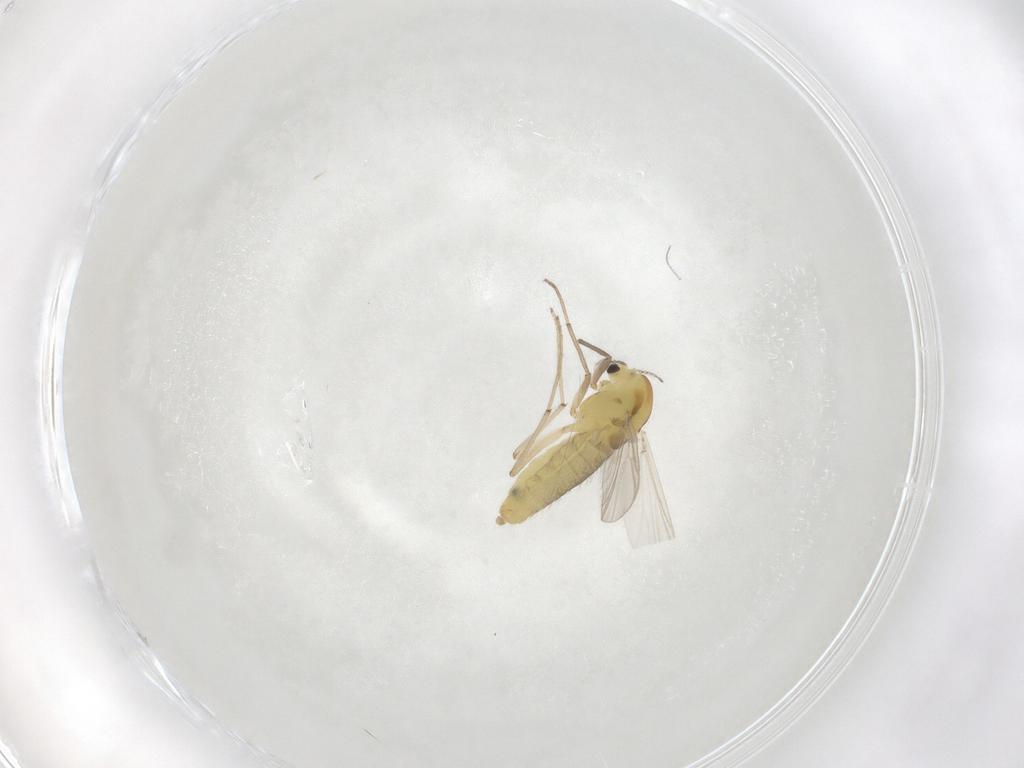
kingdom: Animalia
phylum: Arthropoda
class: Insecta
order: Diptera
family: Chironomidae
